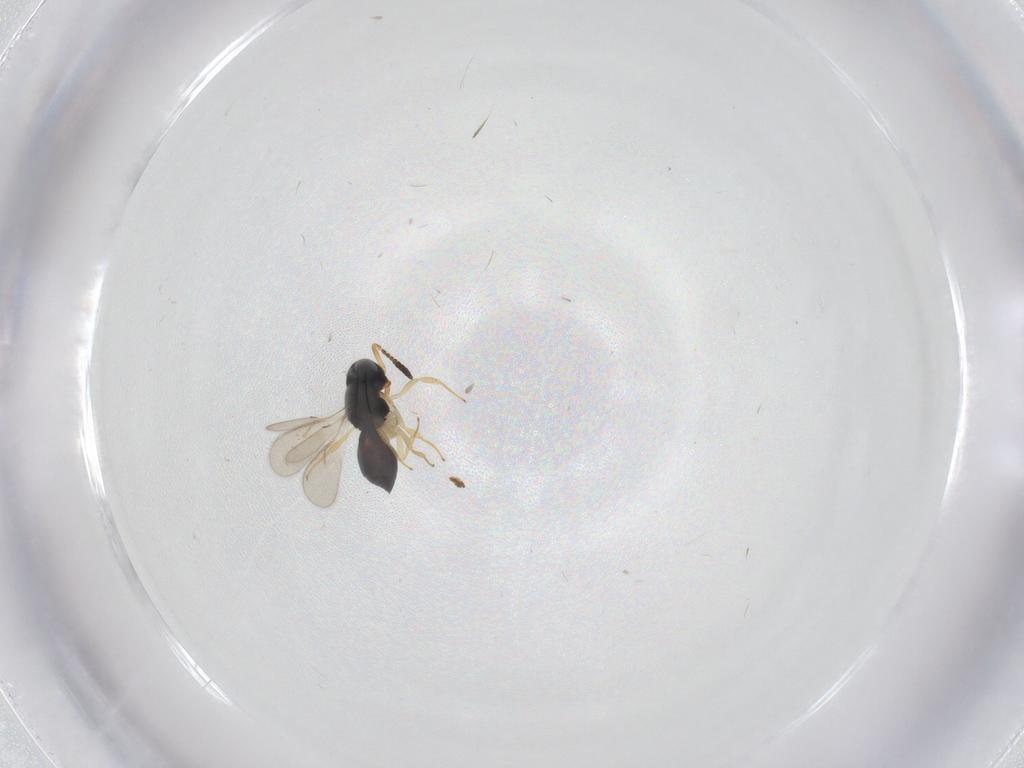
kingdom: Animalia
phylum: Arthropoda
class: Insecta
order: Hymenoptera
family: Scelionidae
